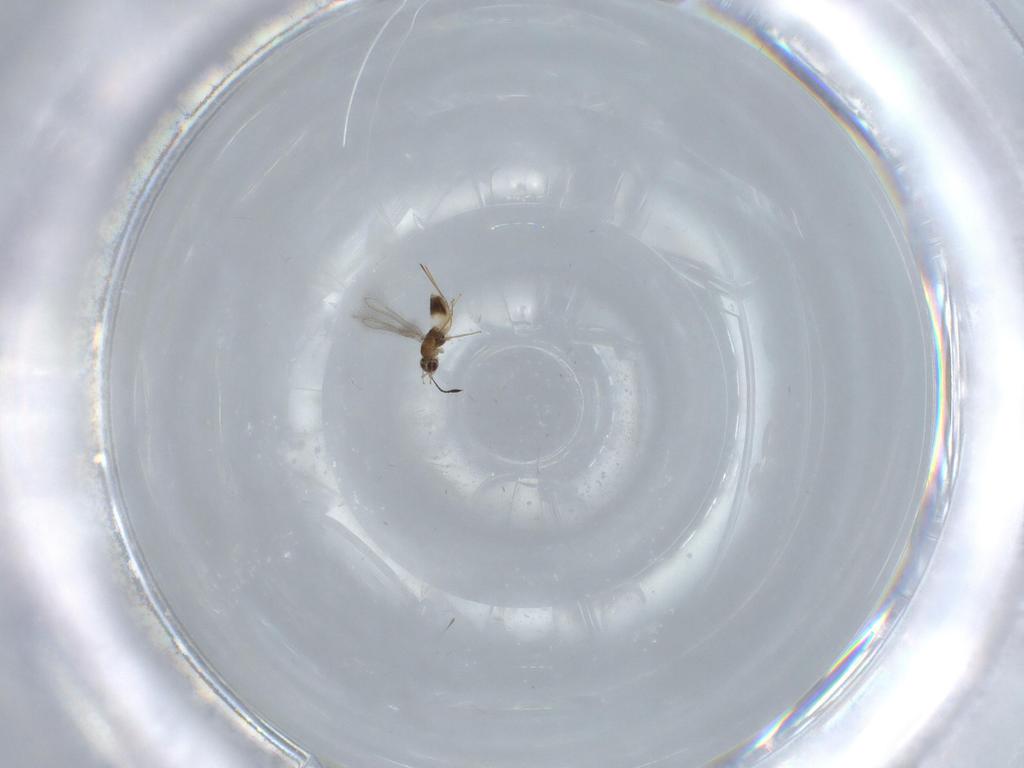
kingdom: Animalia
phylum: Arthropoda
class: Insecta
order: Hymenoptera
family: Mymaridae
